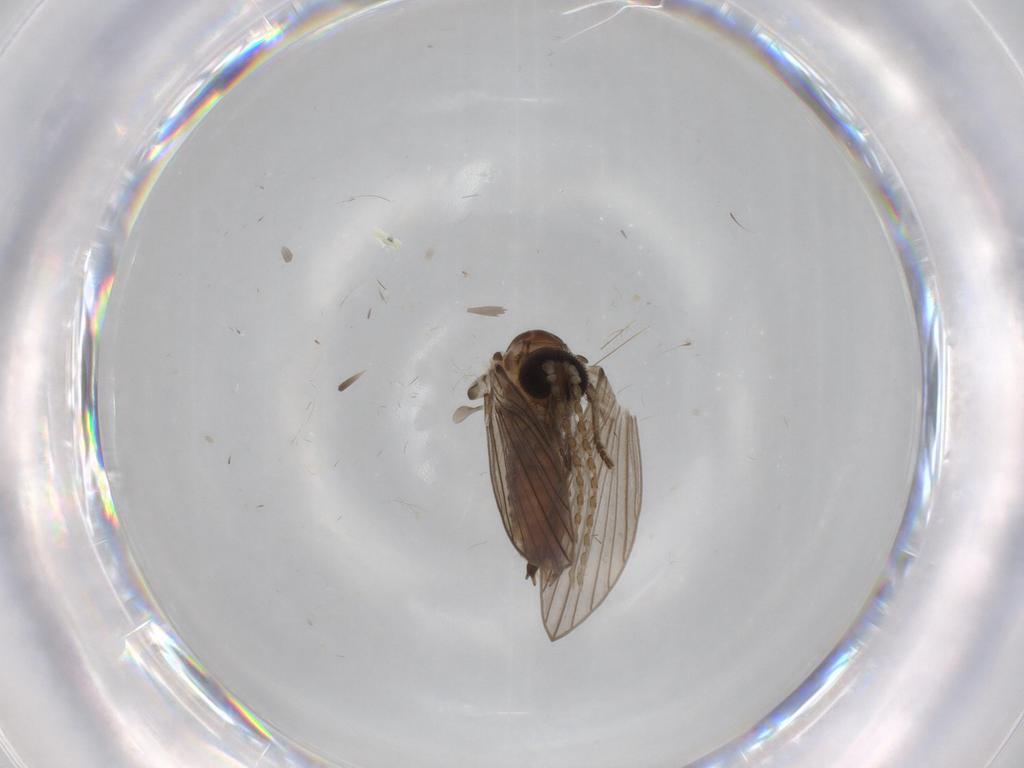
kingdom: Animalia
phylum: Arthropoda
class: Insecta
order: Diptera
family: Psychodidae
